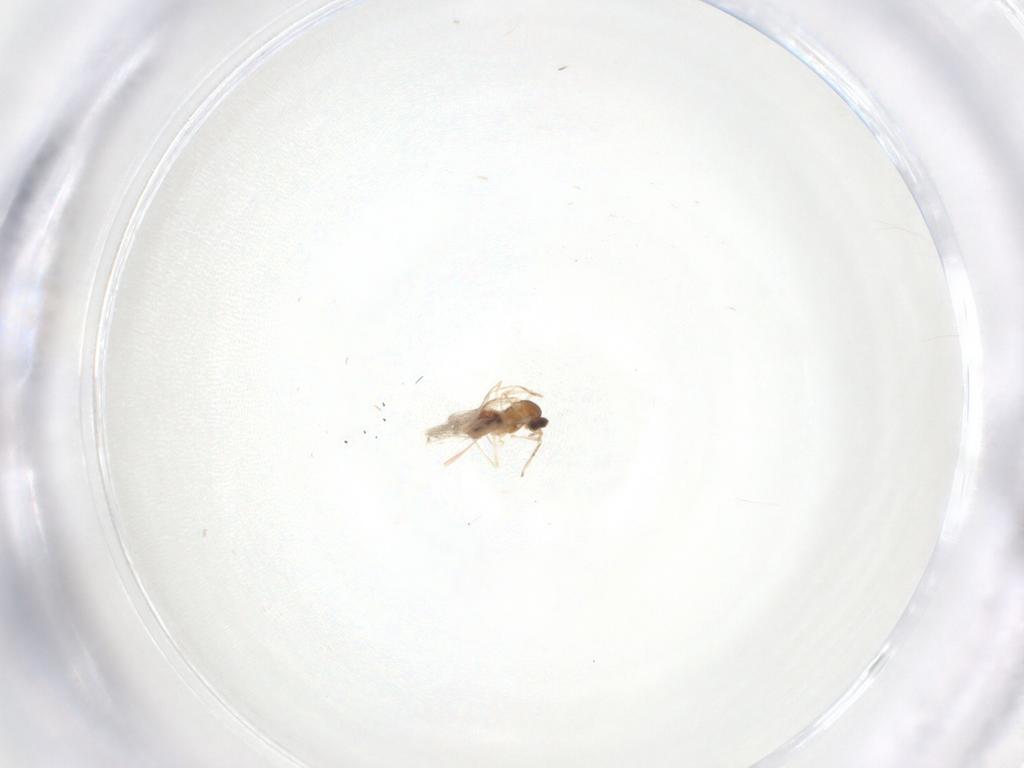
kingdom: Animalia
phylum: Arthropoda
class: Insecta
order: Diptera
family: Cecidomyiidae
